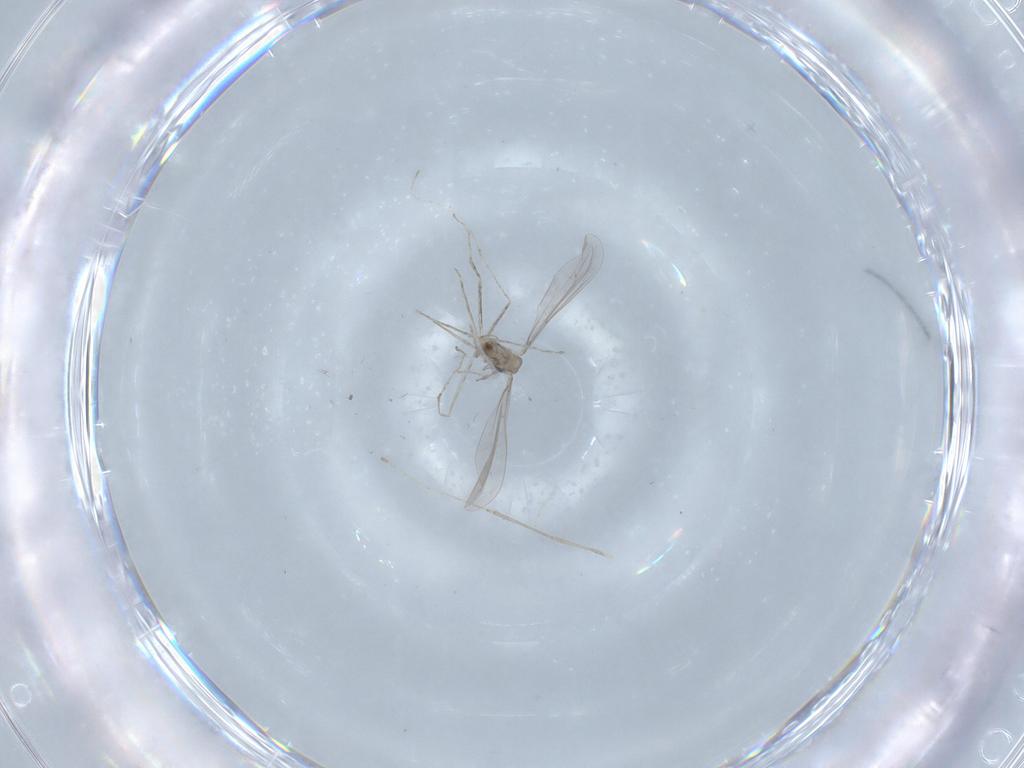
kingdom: Animalia
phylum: Arthropoda
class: Insecta
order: Diptera
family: Cecidomyiidae
